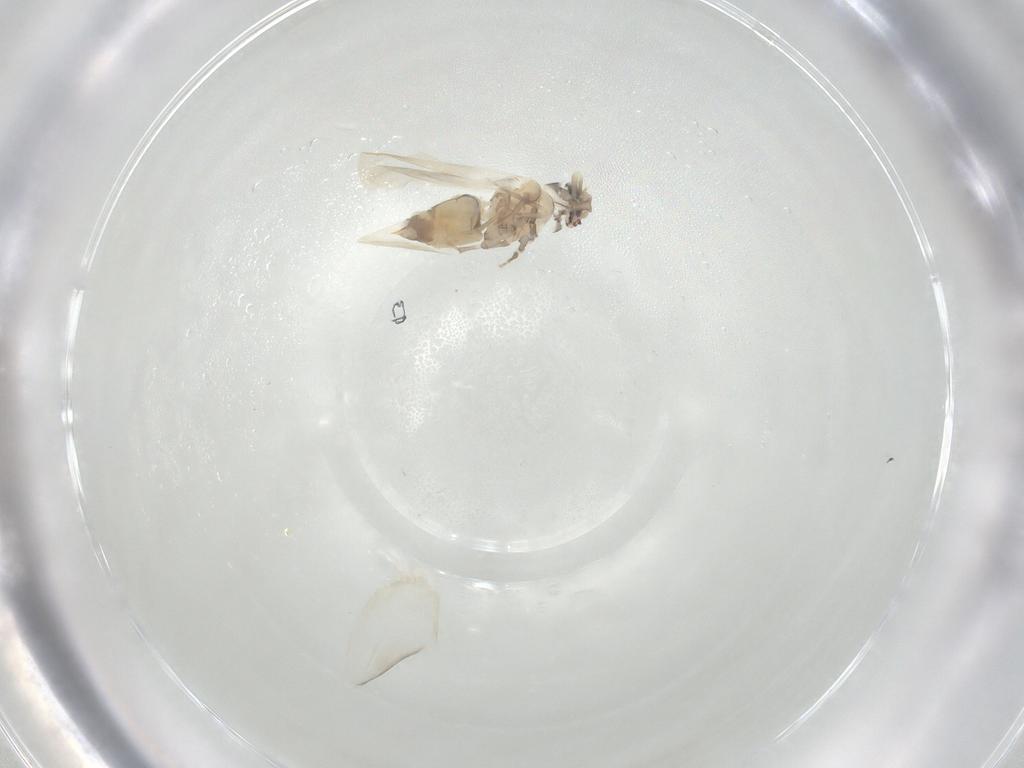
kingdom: Animalia
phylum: Arthropoda
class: Insecta
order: Hemiptera
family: Aleyrodidae
